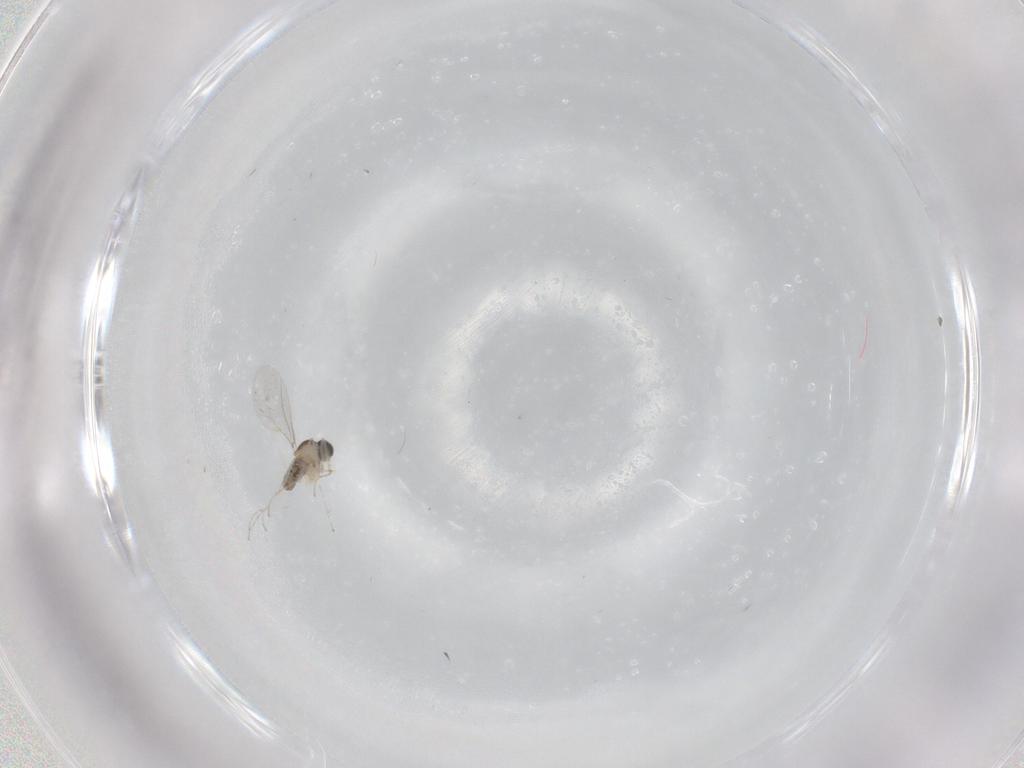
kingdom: Animalia
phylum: Arthropoda
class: Insecta
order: Diptera
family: Cecidomyiidae
